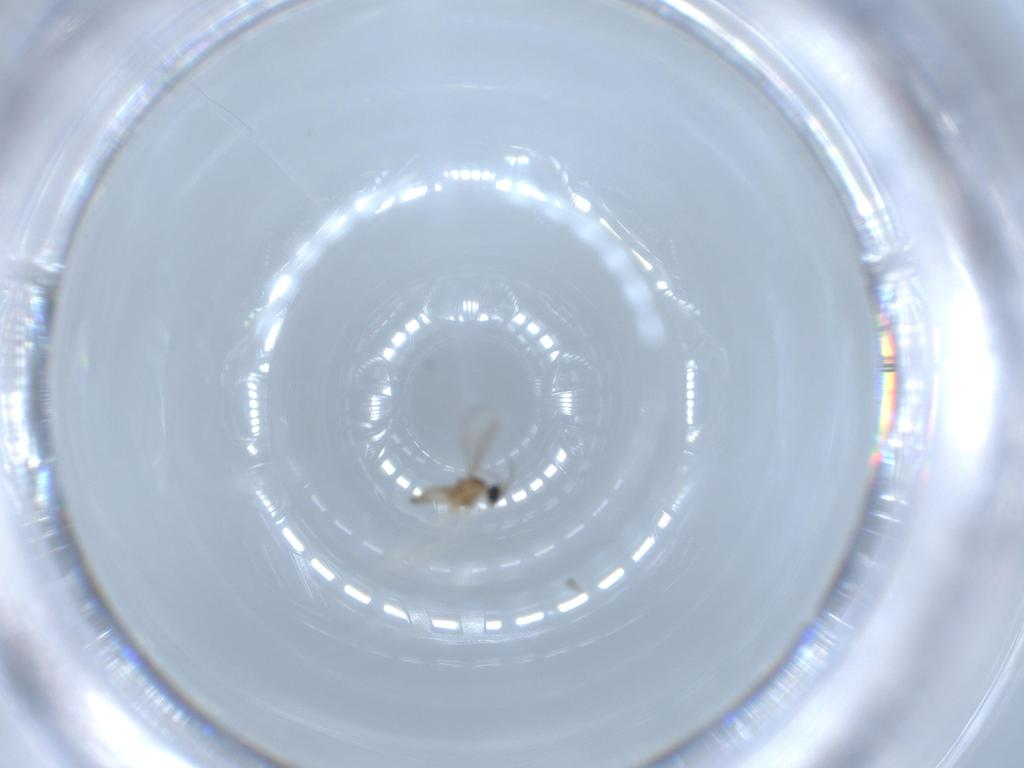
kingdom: Animalia
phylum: Arthropoda
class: Insecta
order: Diptera
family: Cecidomyiidae
